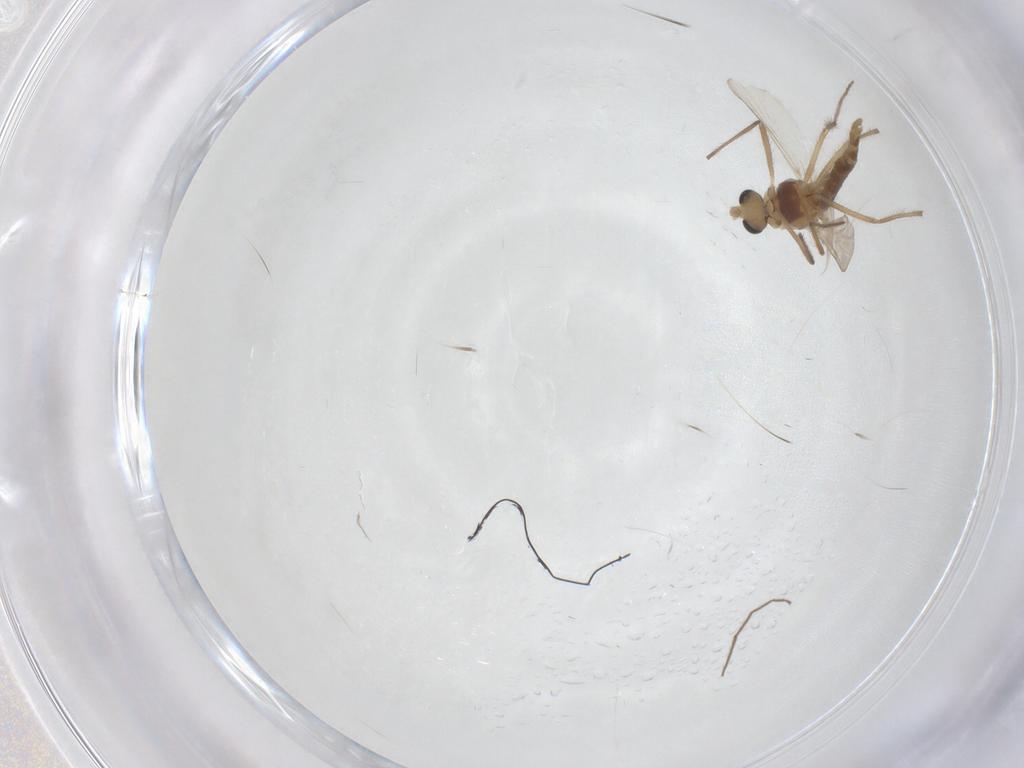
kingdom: Animalia
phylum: Arthropoda
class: Insecta
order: Diptera
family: Chironomidae
